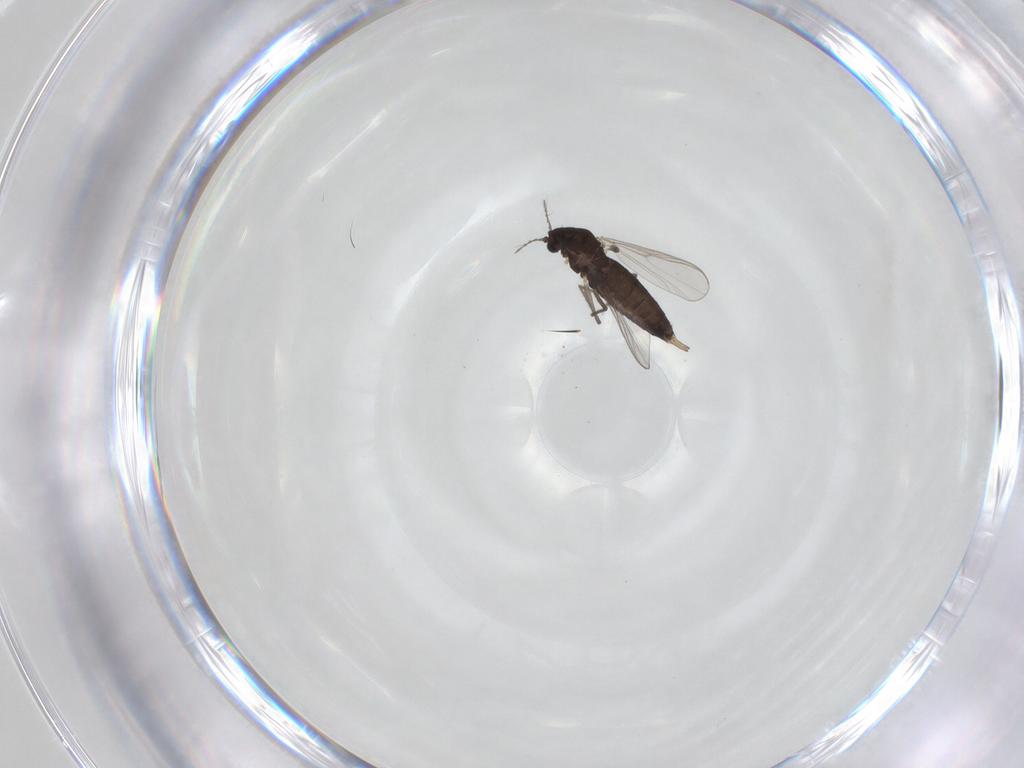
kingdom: Animalia
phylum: Arthropoda
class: Insecta
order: Diptera
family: Chironomidae
